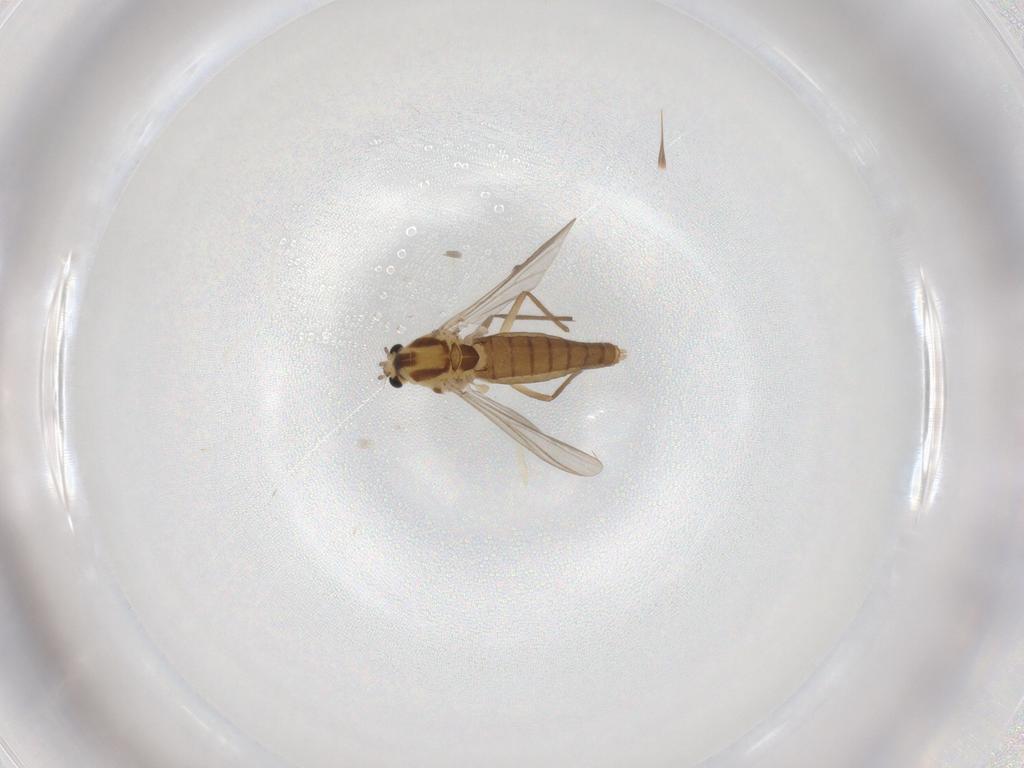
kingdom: Animalia
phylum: Arthropoda
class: Insecta
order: Diptera
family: Chironomidae
